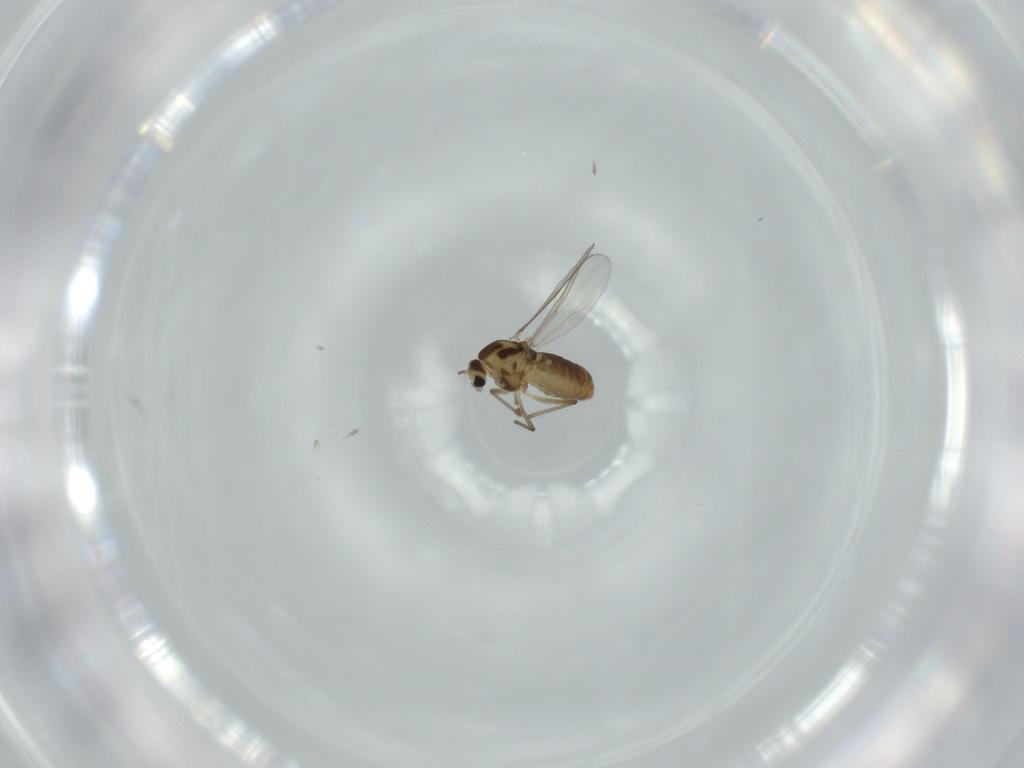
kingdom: Animalia
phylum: Arthropoda
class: Insecta
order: Diptera
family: Chironomidae
